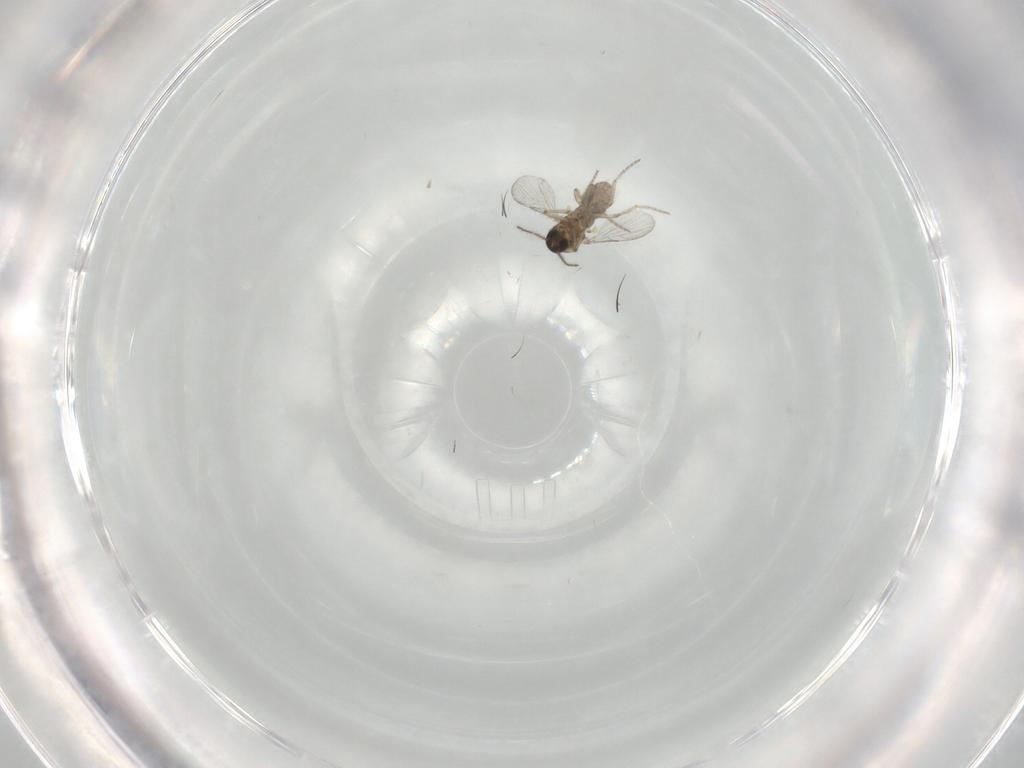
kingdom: Animalia
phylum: Arthropoda
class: Insecta
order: Diptera
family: Ceratopogonidae
